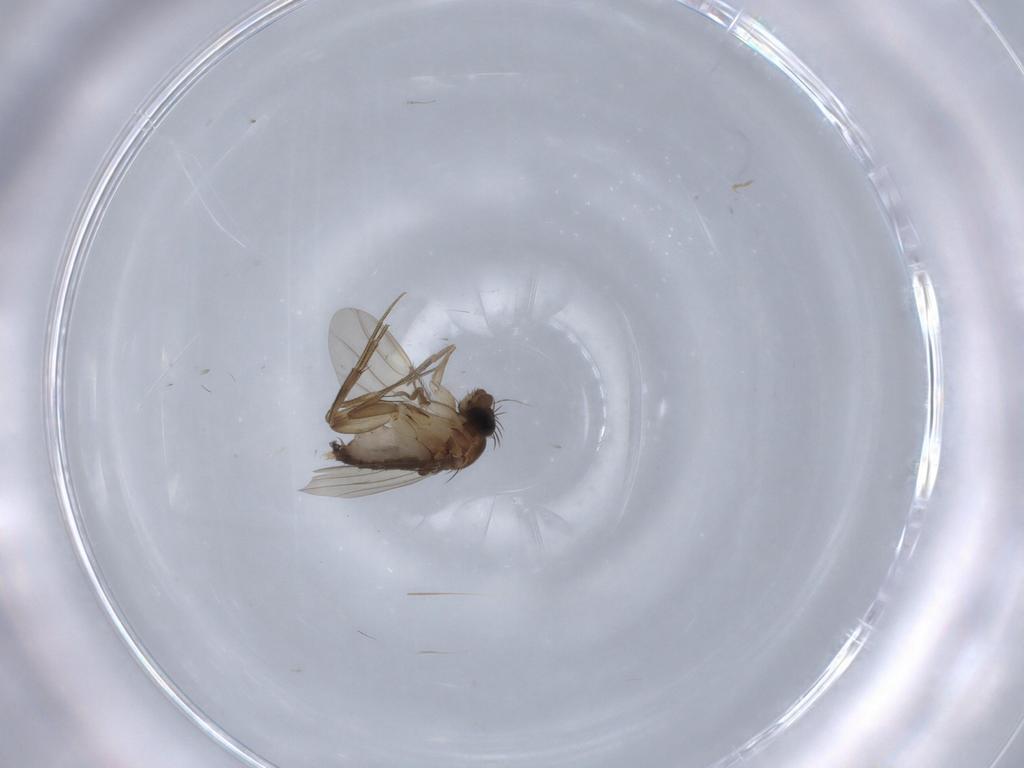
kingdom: Animalia
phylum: Arthropoda
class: Insecta
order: Diptera
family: Phoridae
